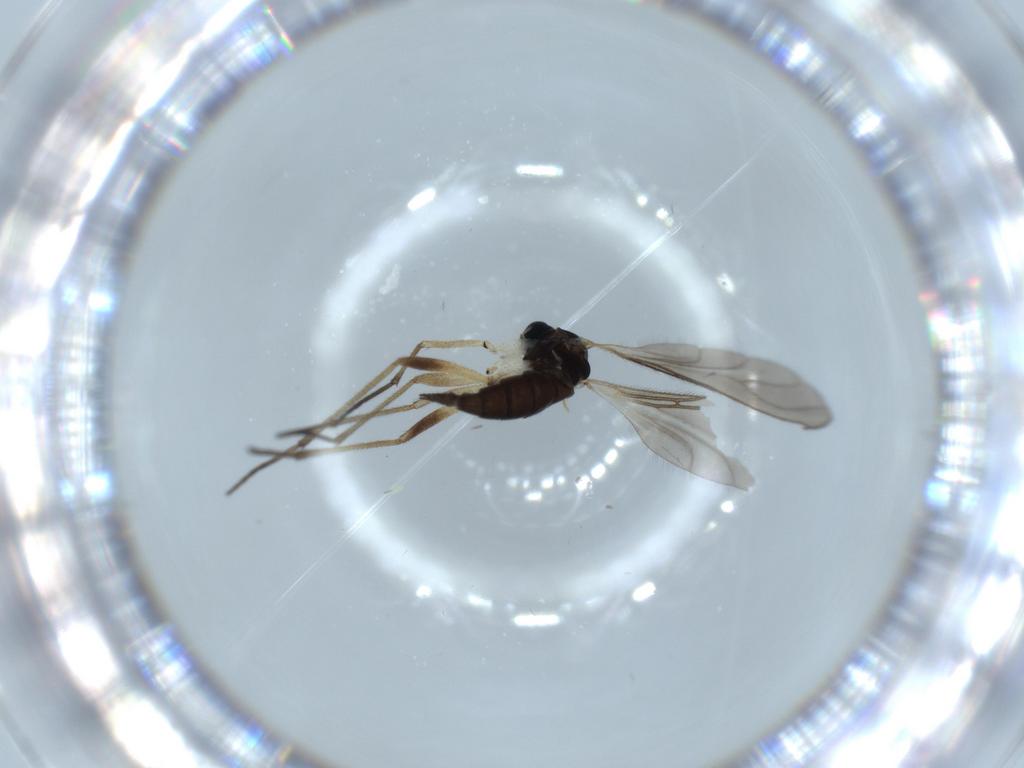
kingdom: Animalia
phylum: Arthropoda
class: Insecta
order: Diptera
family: Sciaridae
